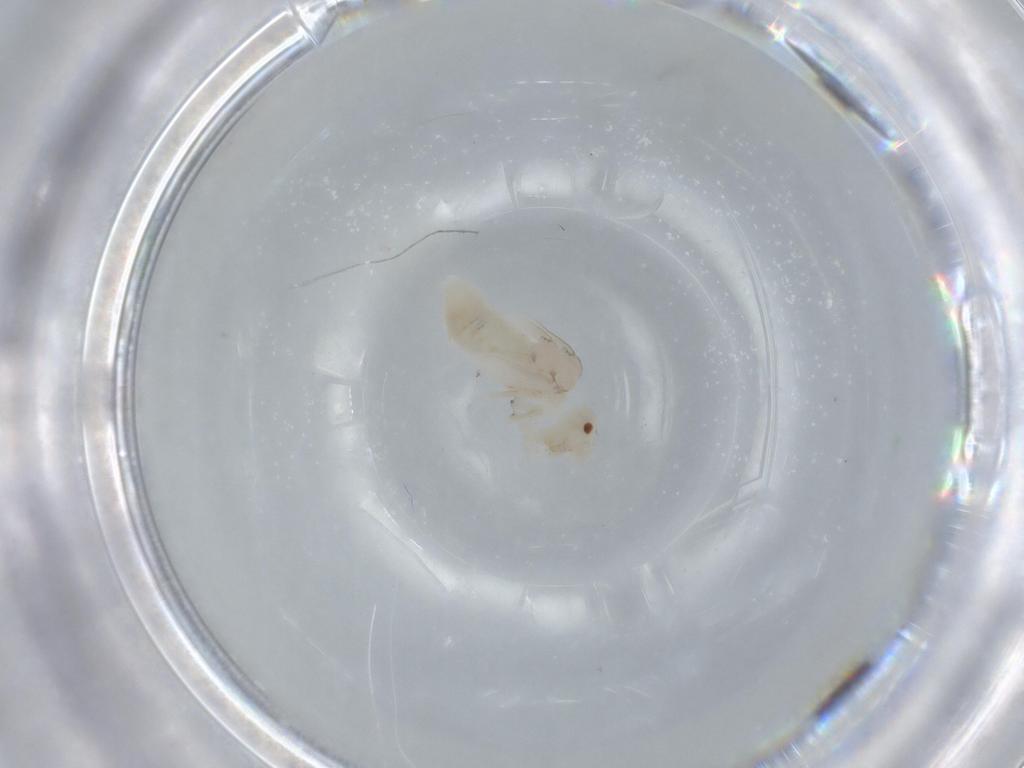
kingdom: Animalia
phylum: Arthropoda
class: Insecta
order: Psocodea
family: Caeciliusidae
